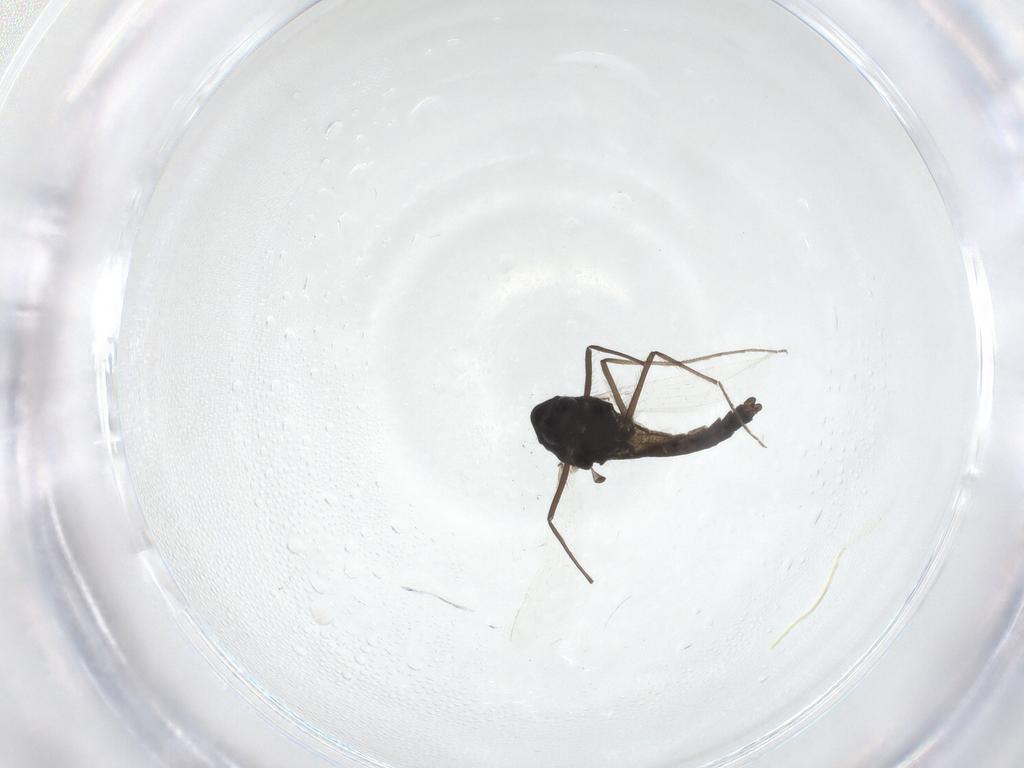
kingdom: Animalia
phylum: Arthropoda
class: Insecta
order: Diptera
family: Chironomidae
